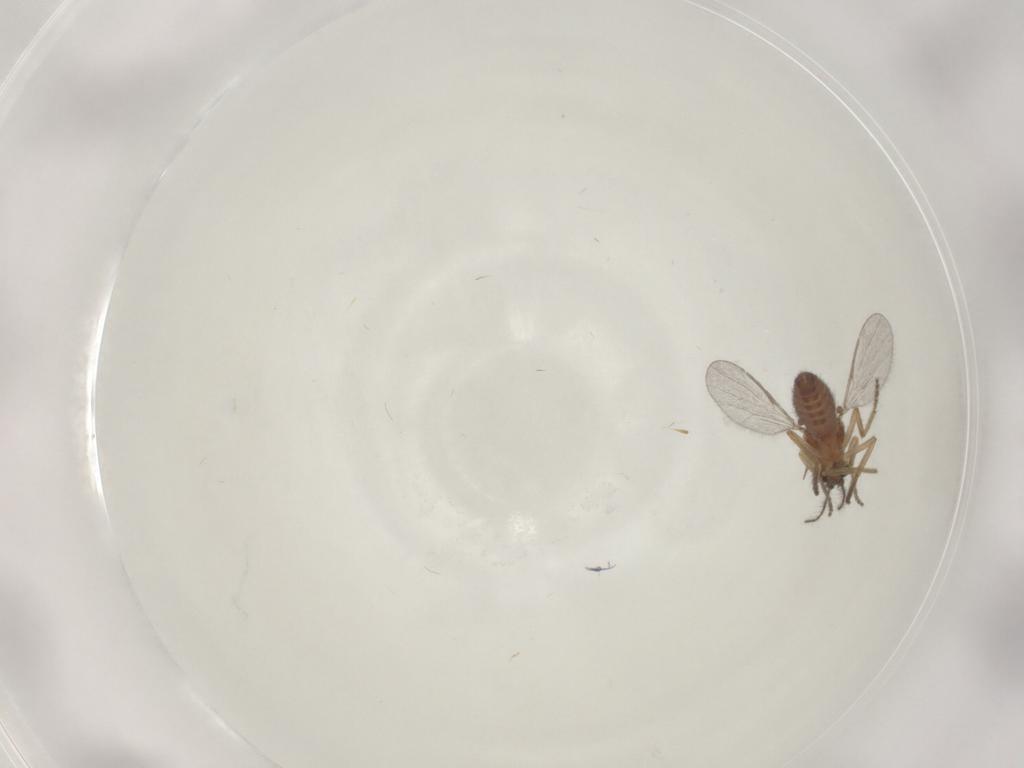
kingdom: Animalia
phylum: Arthropoda
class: Insecta
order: Diptera
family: Ceratopogonidae
